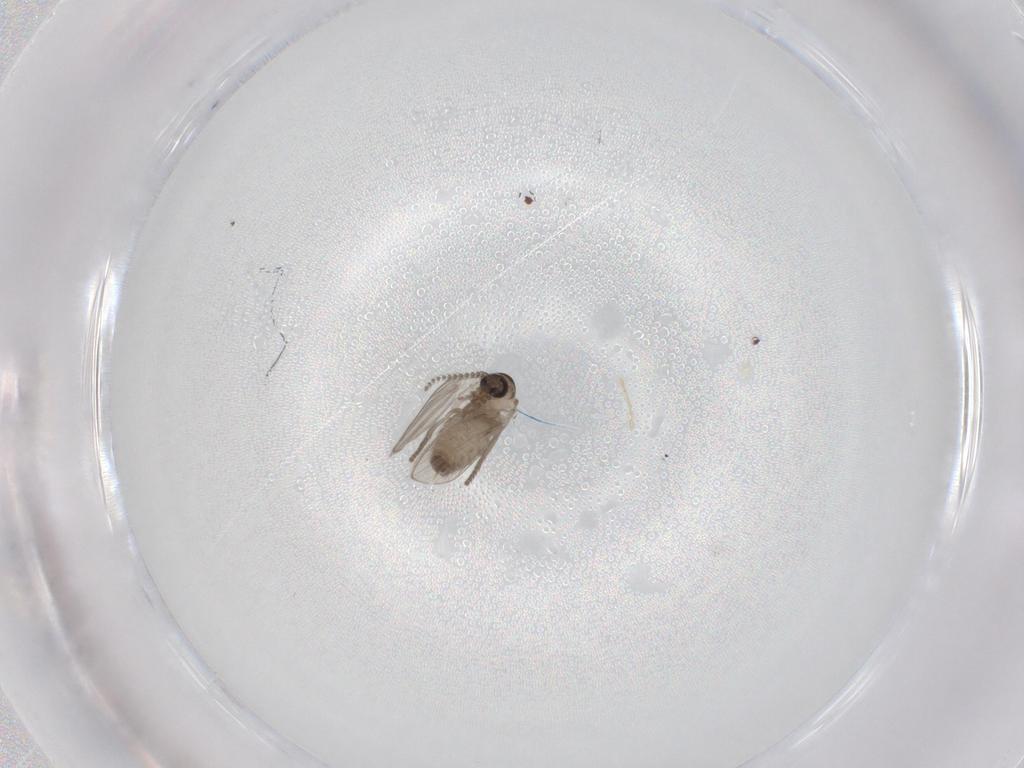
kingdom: Animalia
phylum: Arthropoda
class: Insecta
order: Diptera
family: Psychodidae
